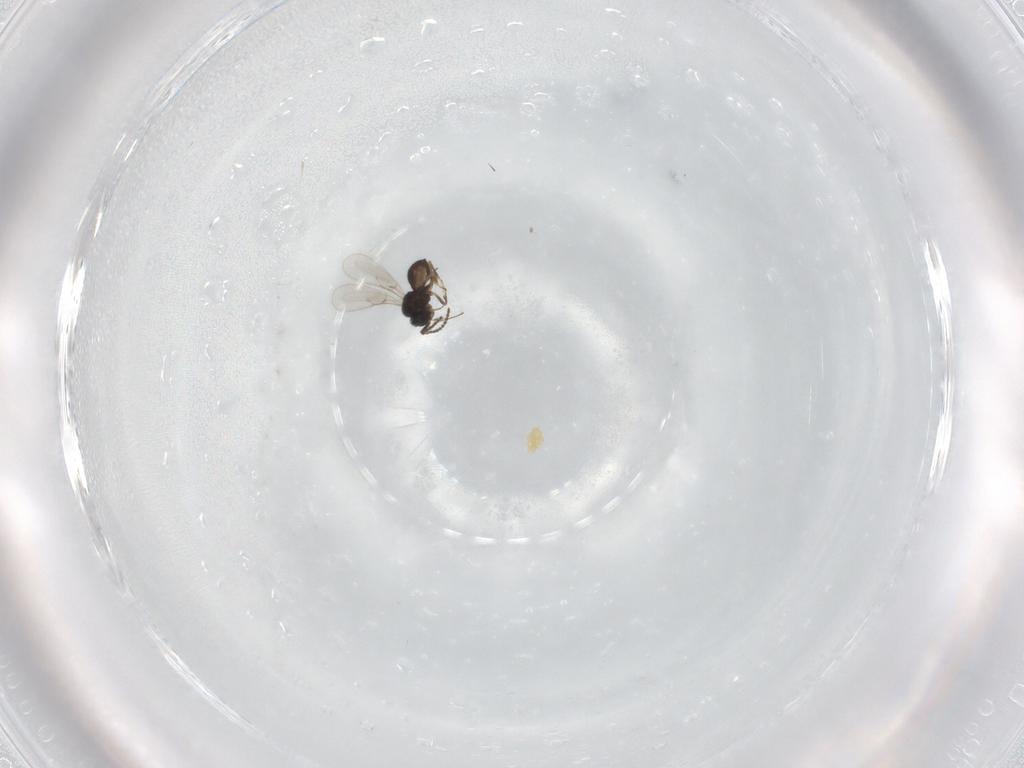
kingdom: Animalia
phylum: Arthropoda
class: Insecta
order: Hymenoptera
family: Scelionidae
